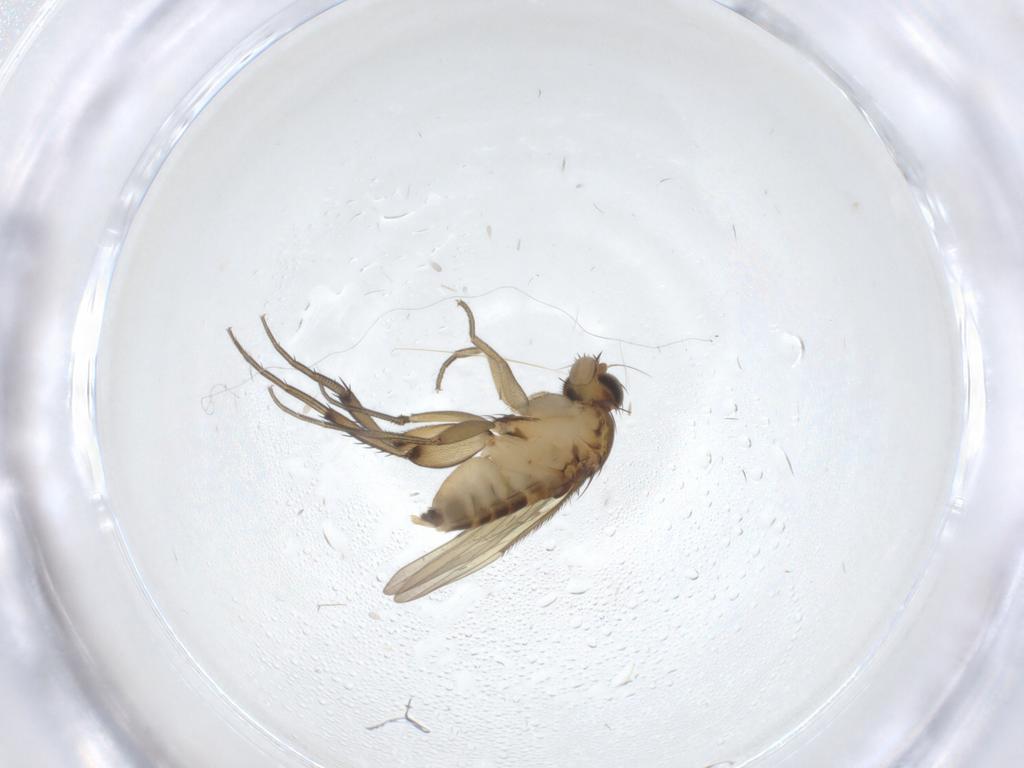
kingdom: Animalia
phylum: Arthropoda
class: Insecta
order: Diptera
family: Phoridae
